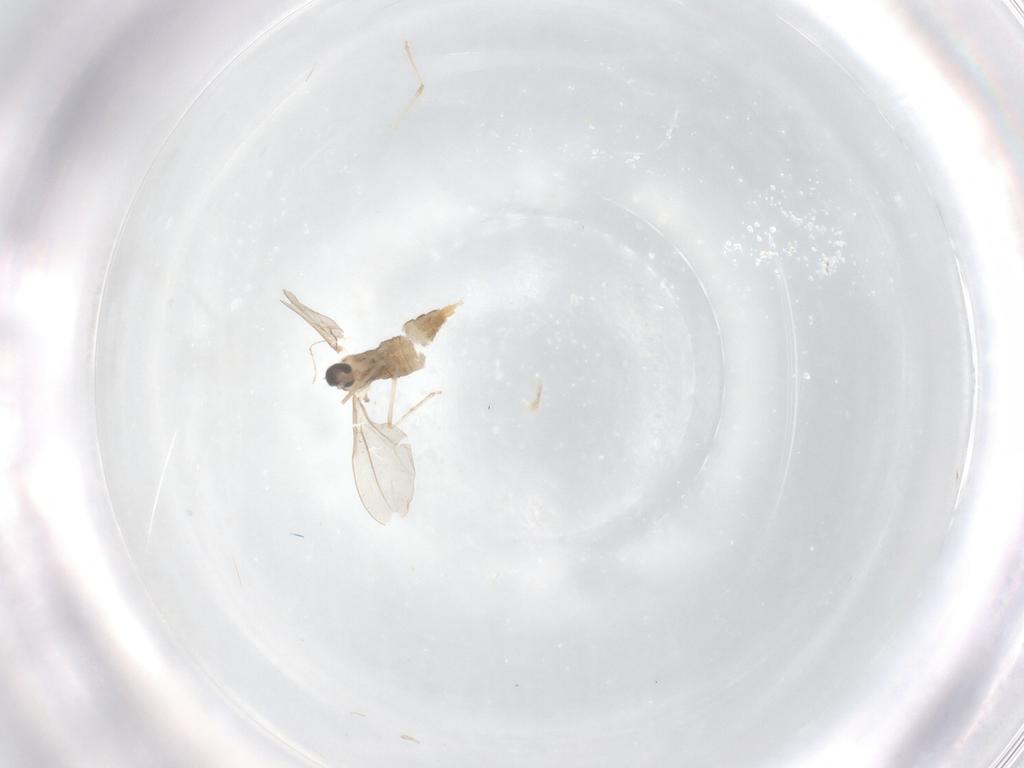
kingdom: Animalia
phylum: Arthropoda
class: Insecta
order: Diptera
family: Cecidomyiidae
